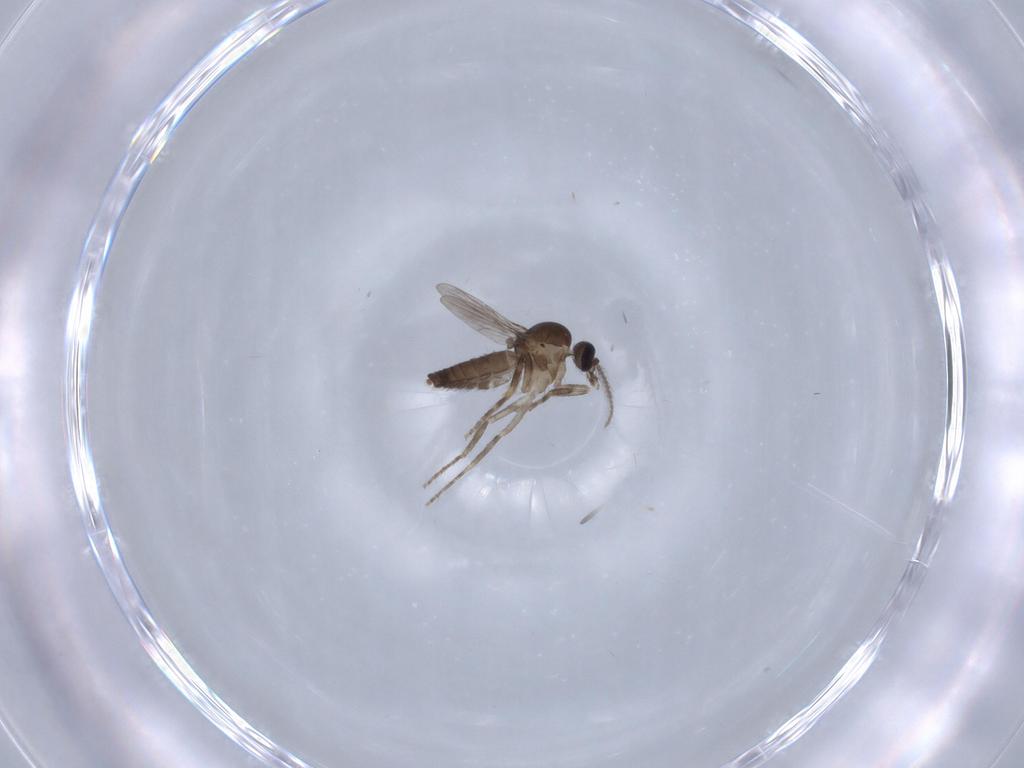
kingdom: Animalia
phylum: Arthropoda
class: Insecta
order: Diptera
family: Ceratopogonidae
